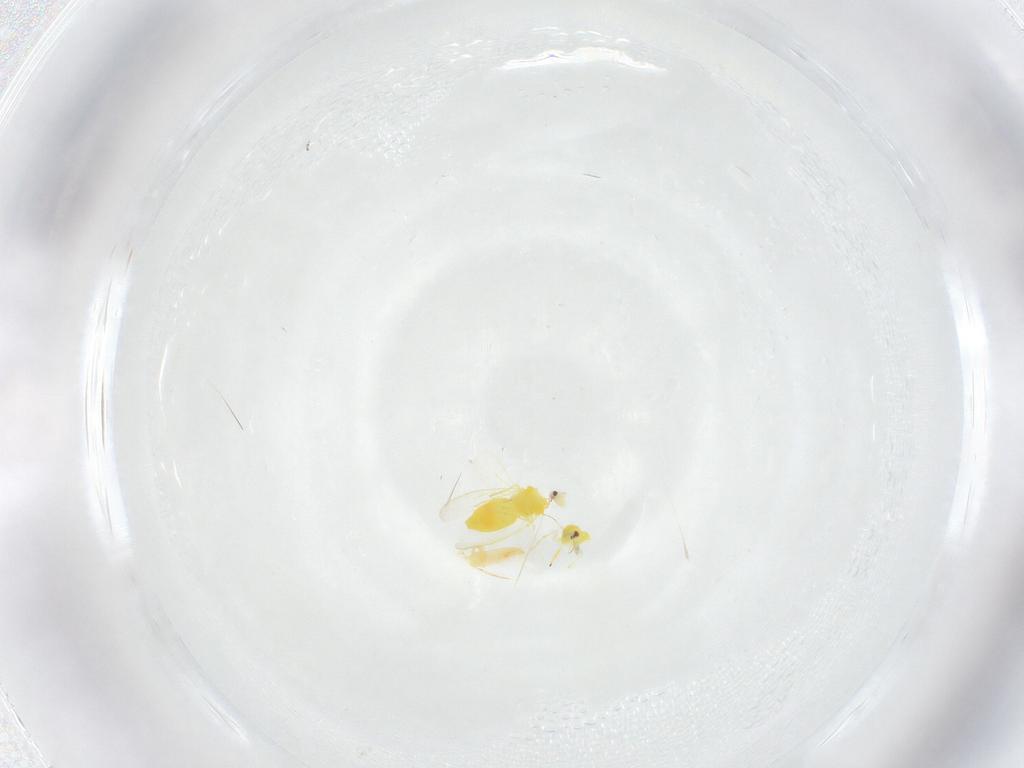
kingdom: Animalia
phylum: Arthropoda
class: Insecta
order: Hemiptera
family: Aleyrodidae
